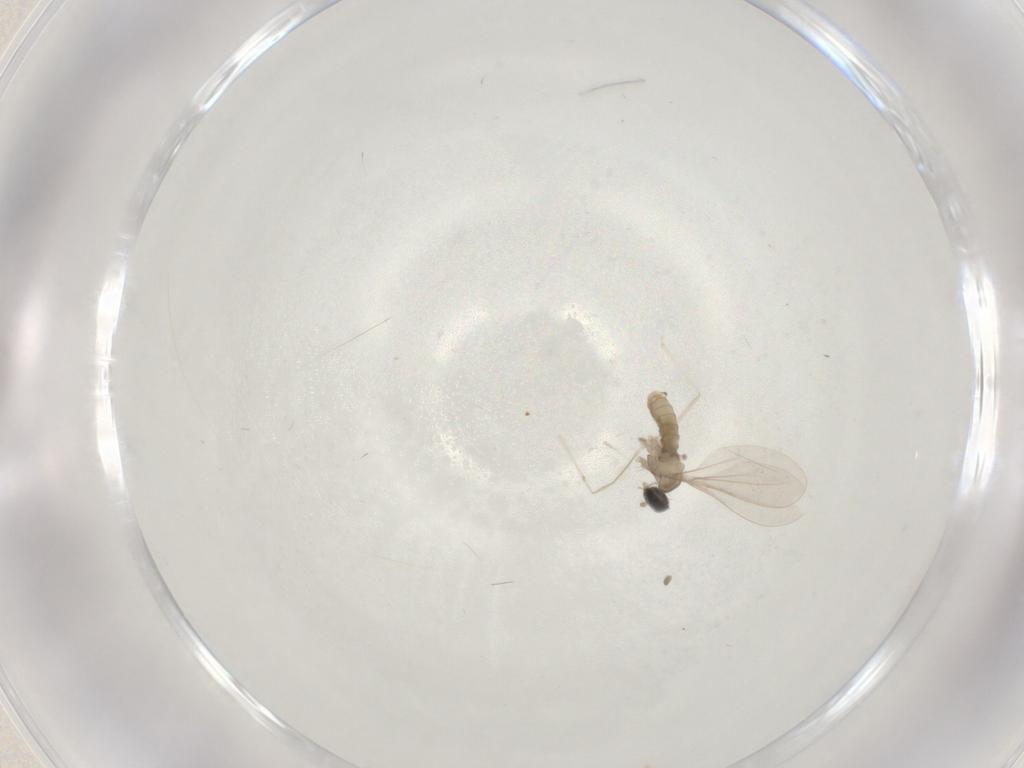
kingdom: Animalia
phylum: Arthropoda
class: Insecta
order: Diptera
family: Cecidomyiidae
